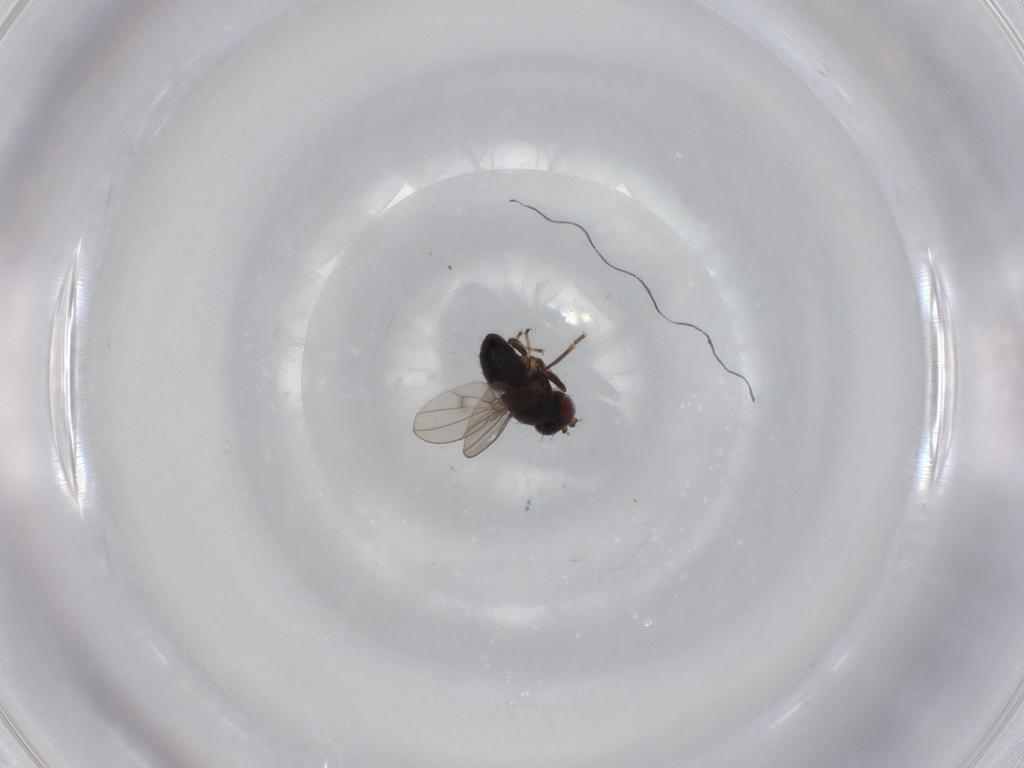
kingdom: Animalia
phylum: Arthropoda
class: Insecta
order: Diptera
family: Ephydridae
